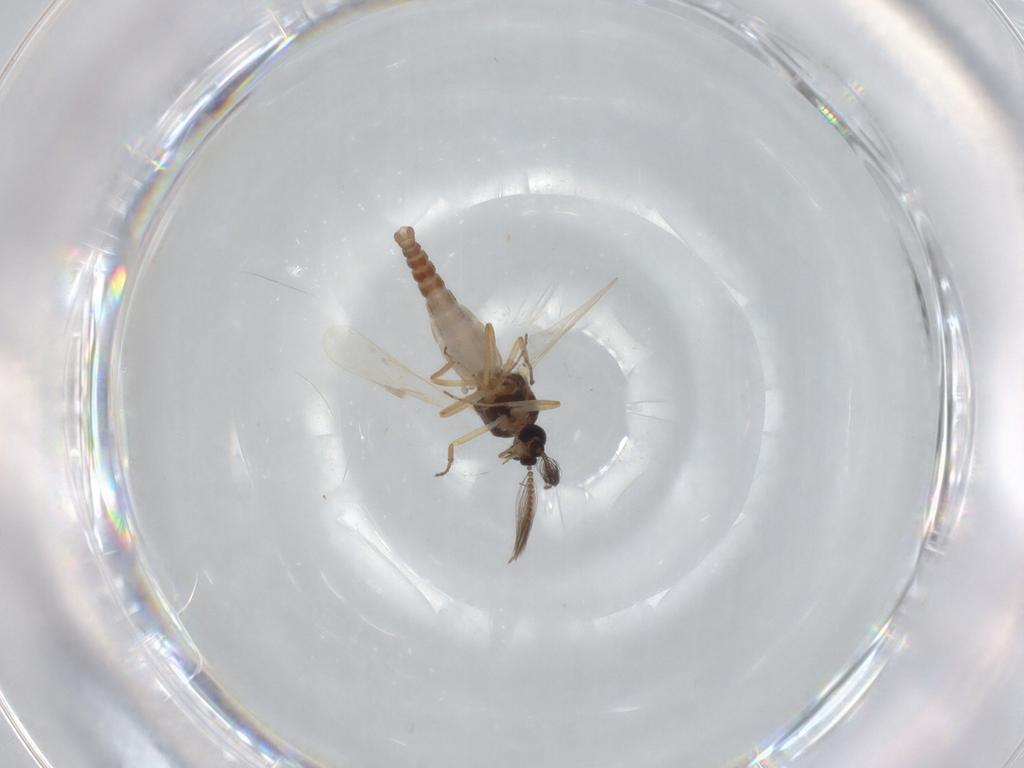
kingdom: Animalia
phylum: Arthropoda
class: Insecta
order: Diptera
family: Ceratopogonidae
